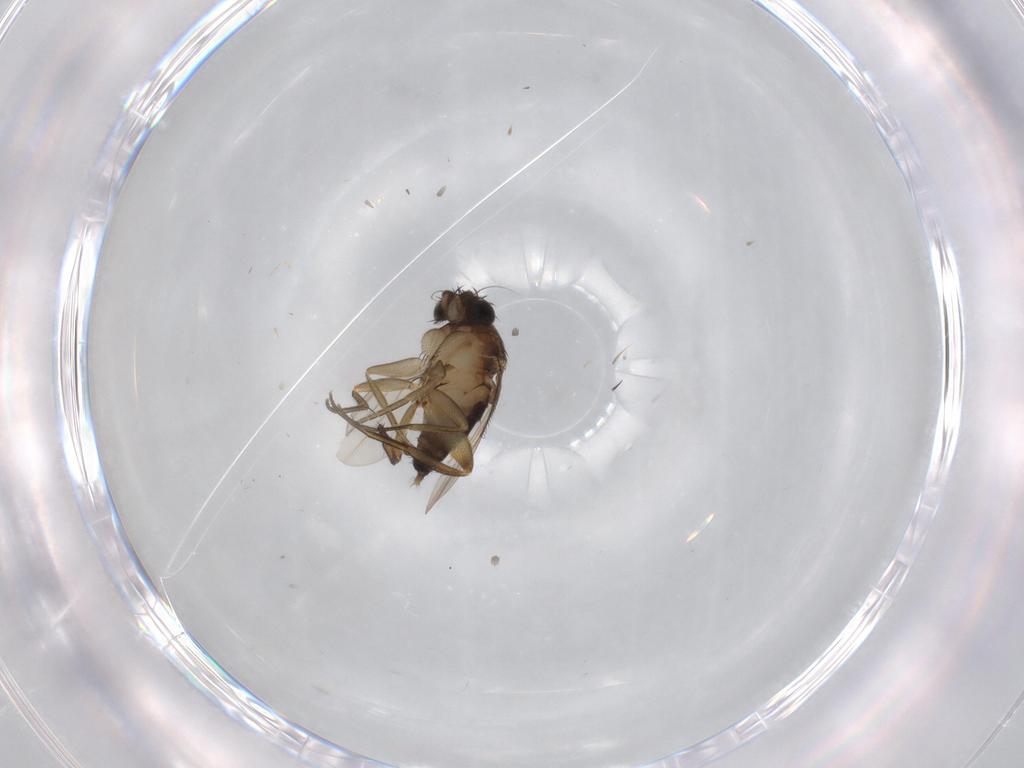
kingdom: Animalia
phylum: Arthropoda
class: Insecta
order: Diptera
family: Phoridae
